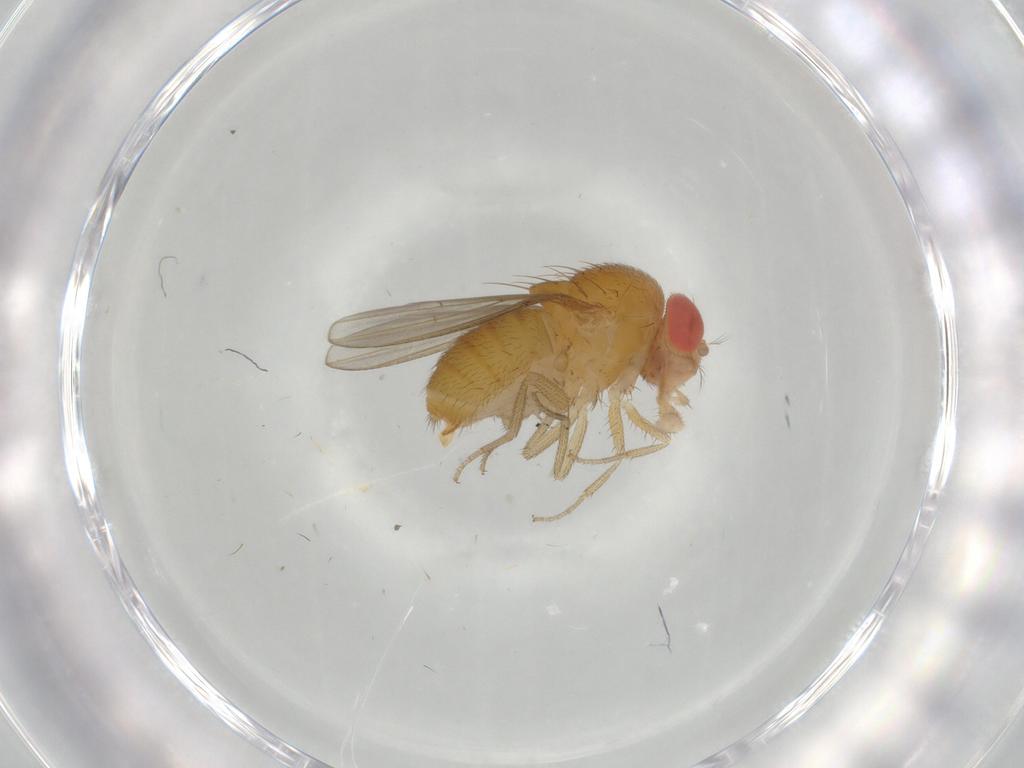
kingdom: Animalia
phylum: Arthropoda
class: Insecta
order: Diptera
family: Drosophilidae
